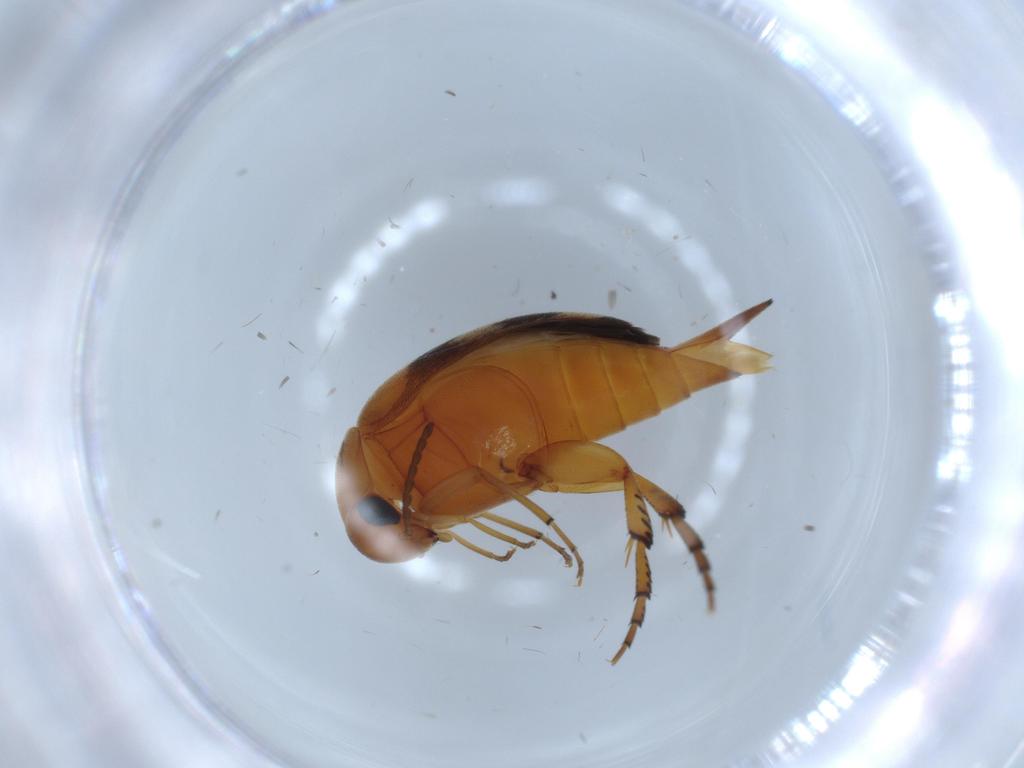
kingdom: Animalia
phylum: Arthropoda
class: Insecta
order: Coleoptera
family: Mordellidae
